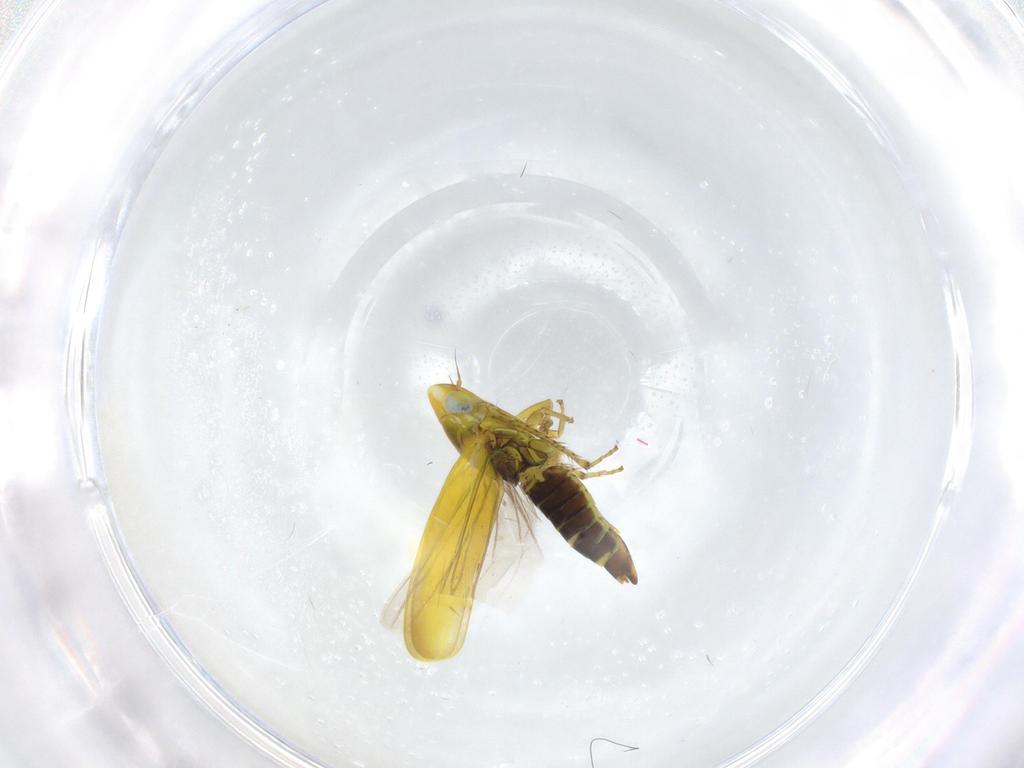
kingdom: Animalia
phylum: Arthropoda
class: Insecta
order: Hemiptera
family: Cicadellidae
